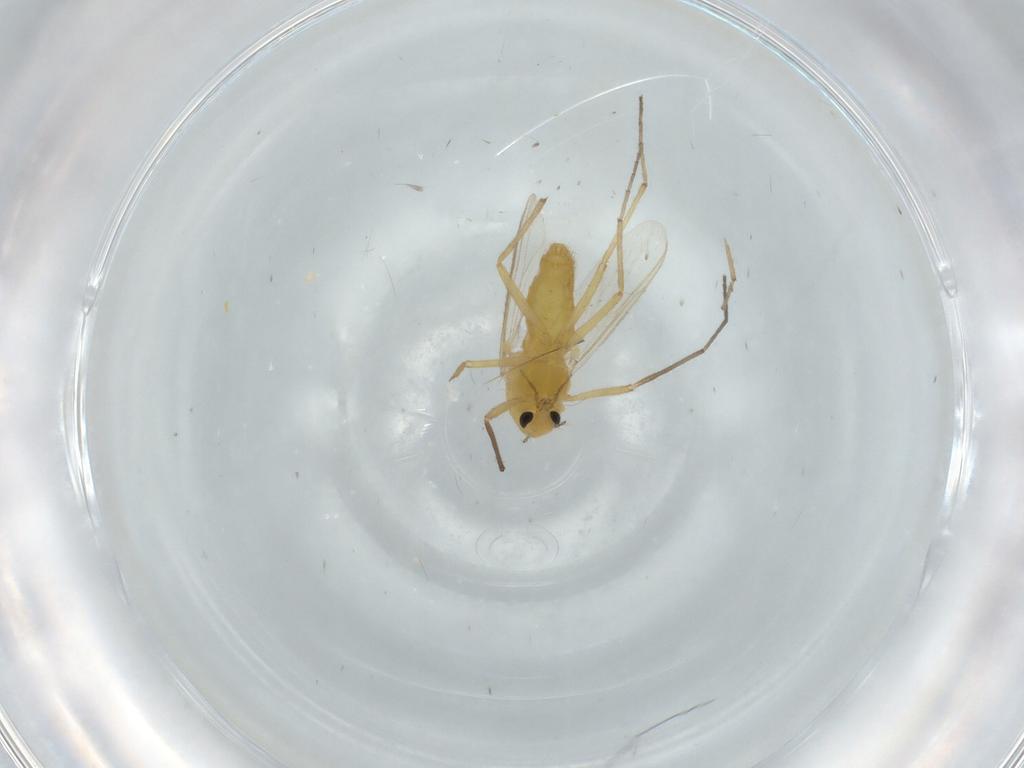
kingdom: Animalia
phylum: Arthropoda
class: Insecta
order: Diptera
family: Chironomidae
